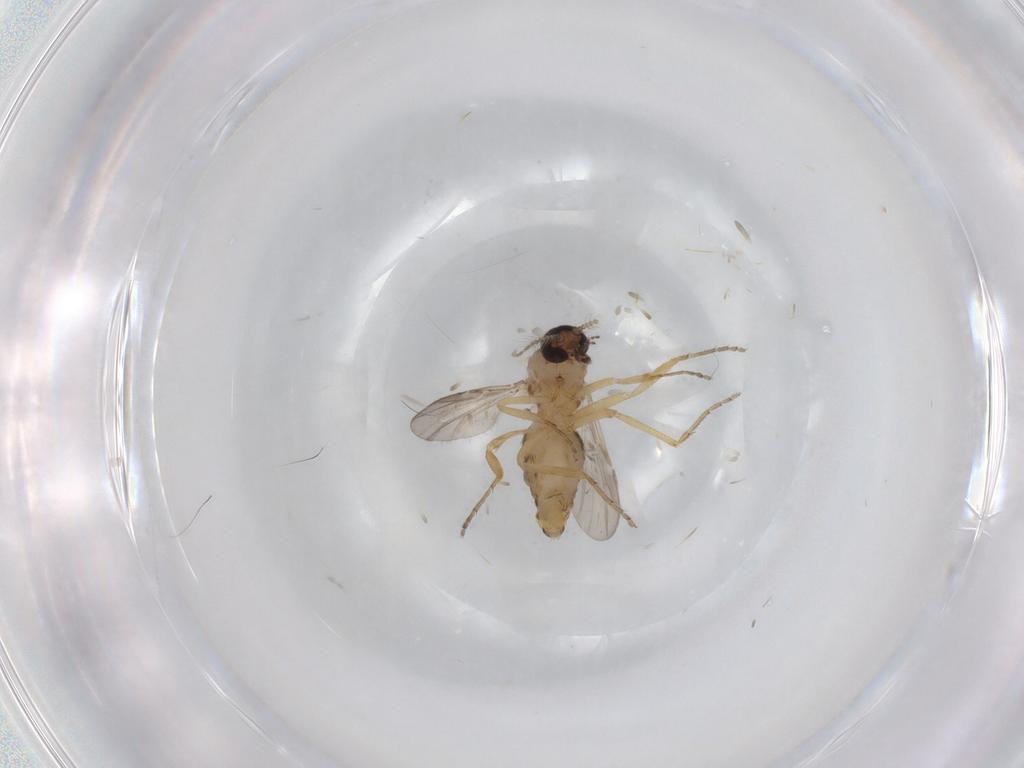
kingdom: Animalia
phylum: Arthropoda
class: Insecta
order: Diptera
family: Ceratopogonidae
